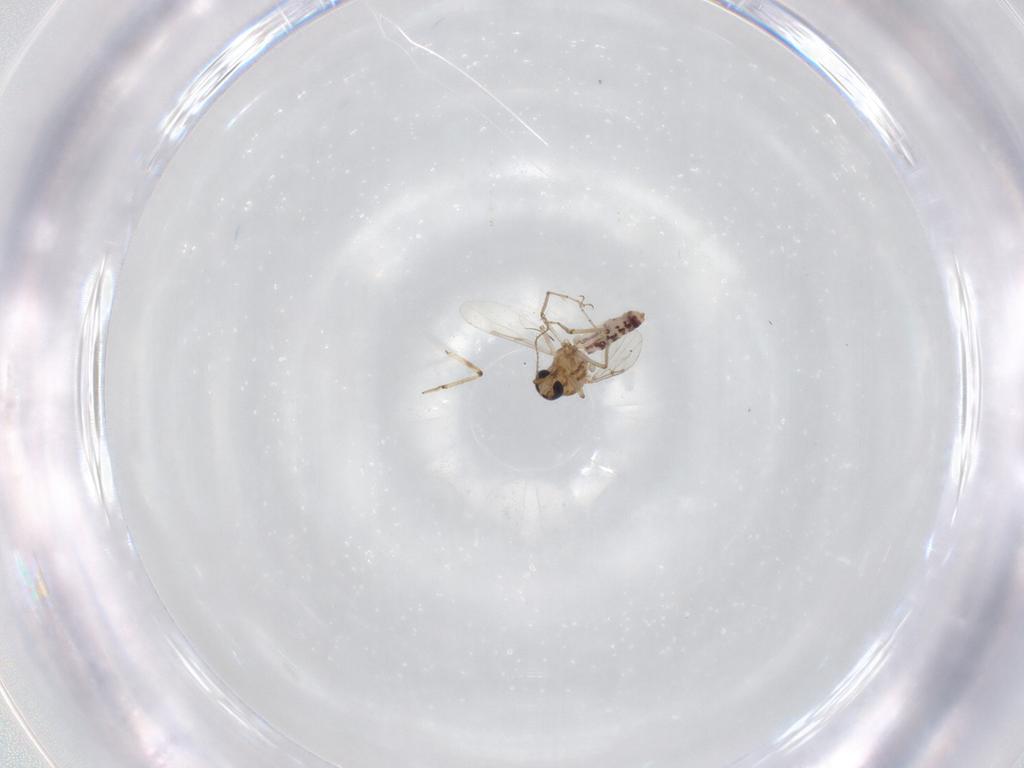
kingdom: Animalia
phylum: Arthropoda
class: Insecta
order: Diptera
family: Ceratopogonidae
